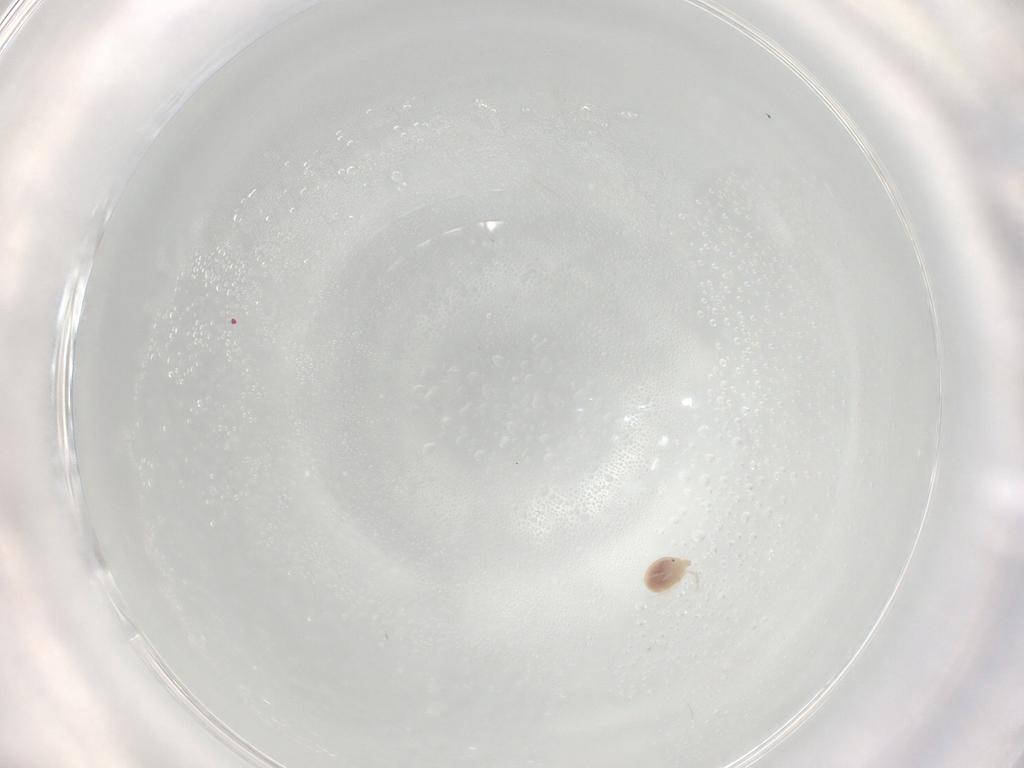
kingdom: Animalia
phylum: Arthropoda
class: Arachnida
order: Trombidiformes
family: Hygrobatidae
